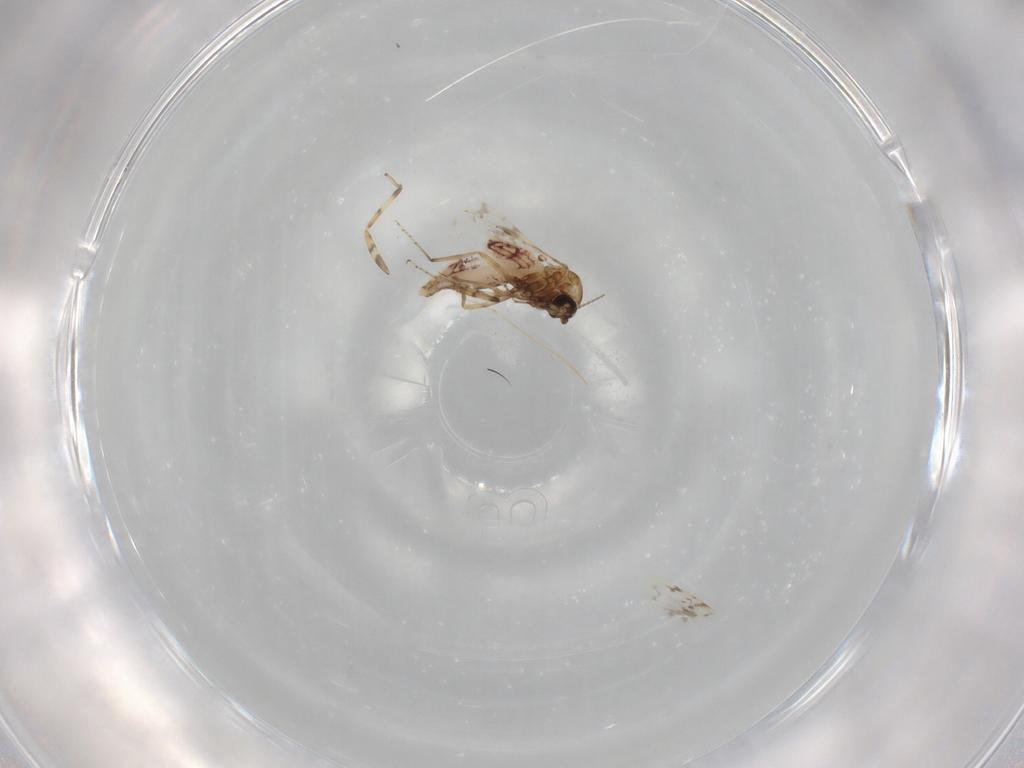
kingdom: Animalia
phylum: Arthropoda
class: Insecta
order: Diptera
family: Ceratopogonidae
